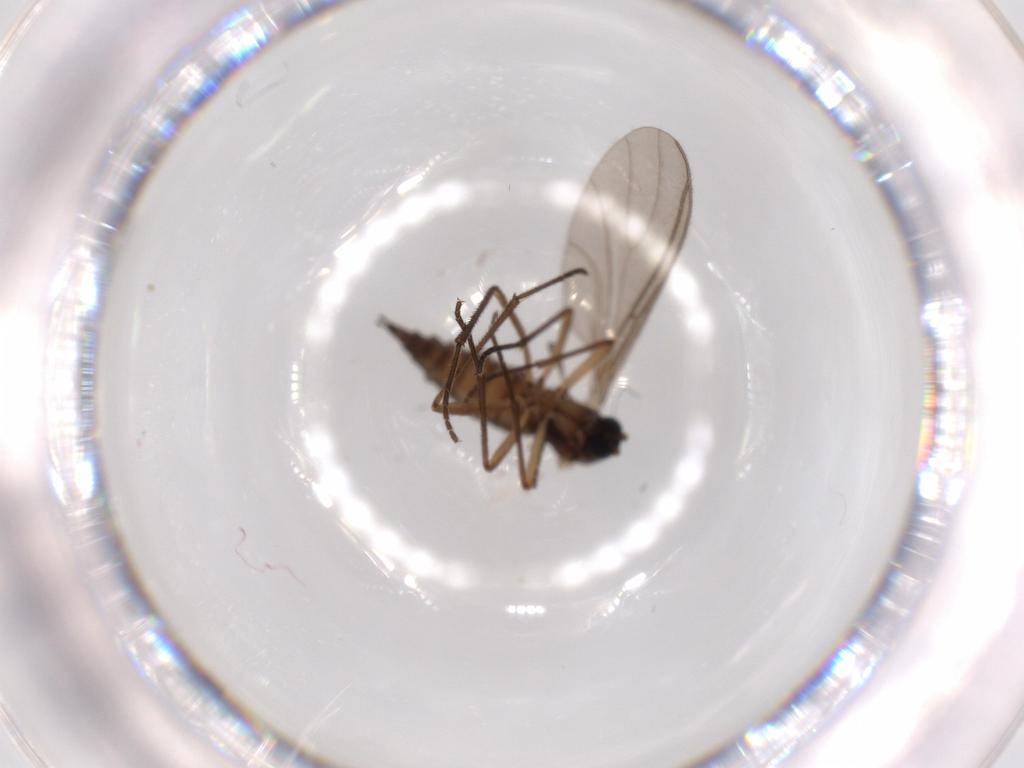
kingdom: Animalia
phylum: Arthropoda
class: Insecta
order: Diptera
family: Sciaridae
